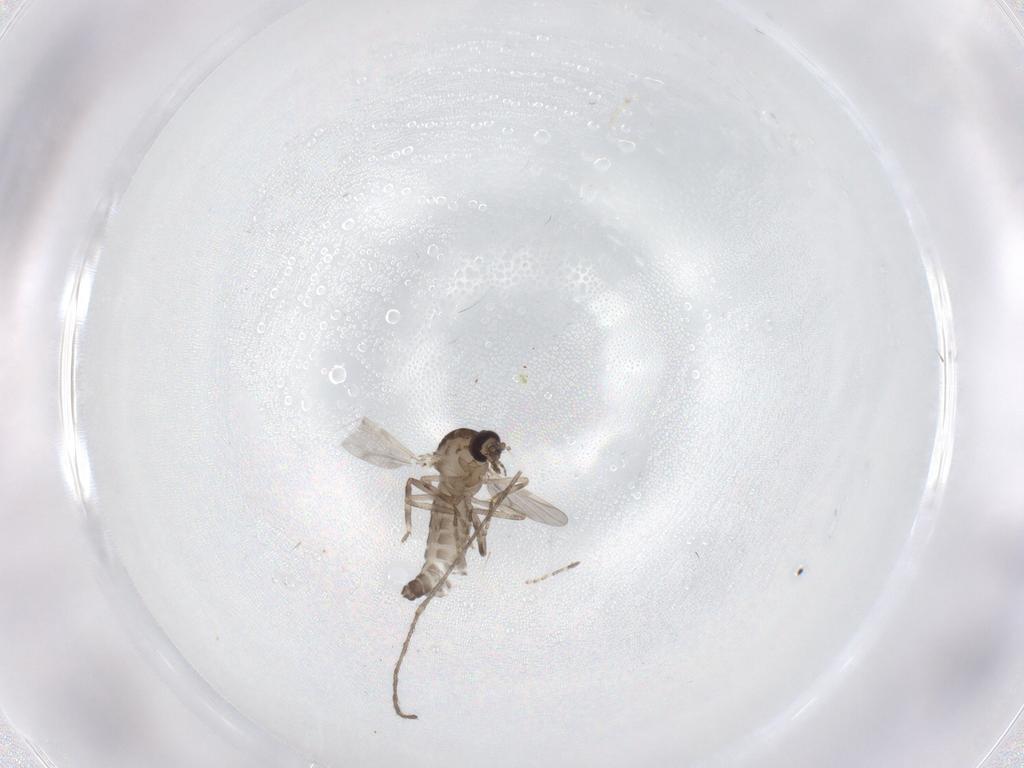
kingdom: Animalia
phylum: Arthropoda
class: Insecta
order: Diptera
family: Ceratopogonidae
